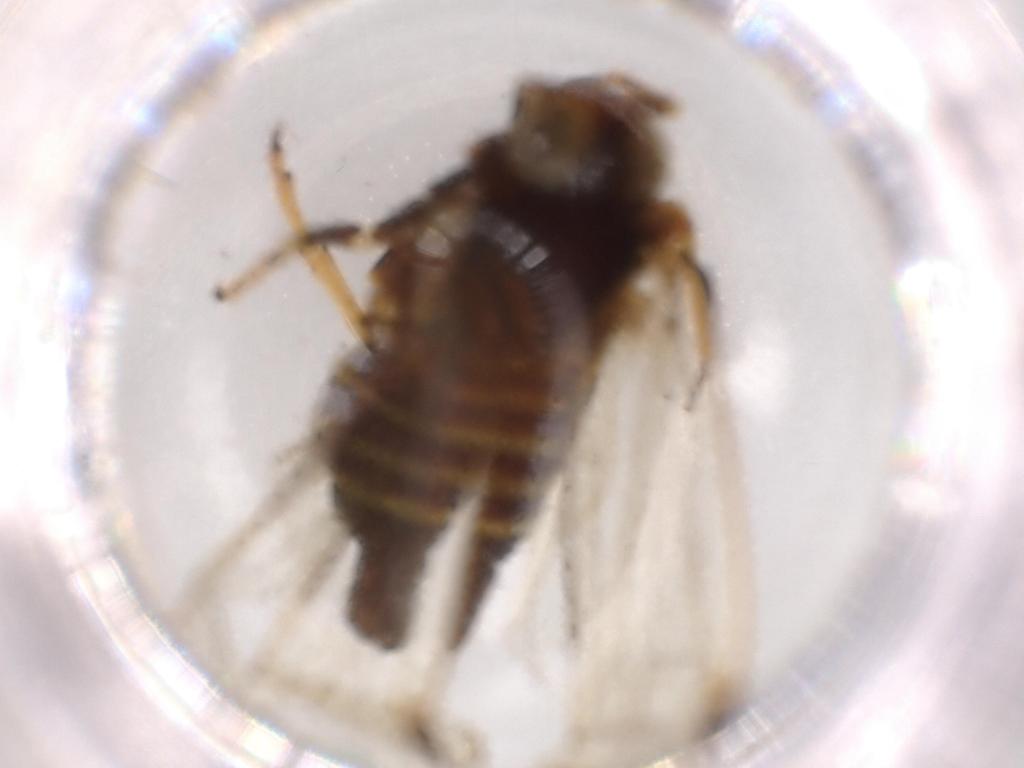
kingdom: Animalia
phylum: Arthropoda
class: Insecta
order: Hemiptera
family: Cixiidae
